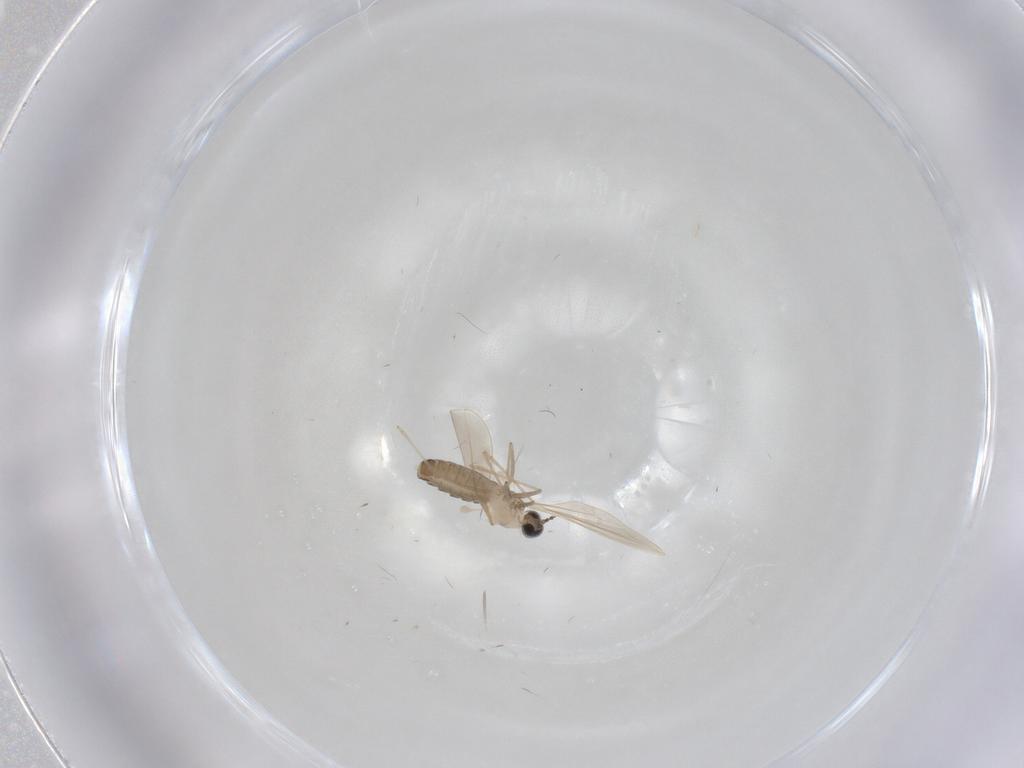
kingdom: Animalia
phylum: Arthropoda
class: Insecta
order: Diptera
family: Cecidomyiidae
